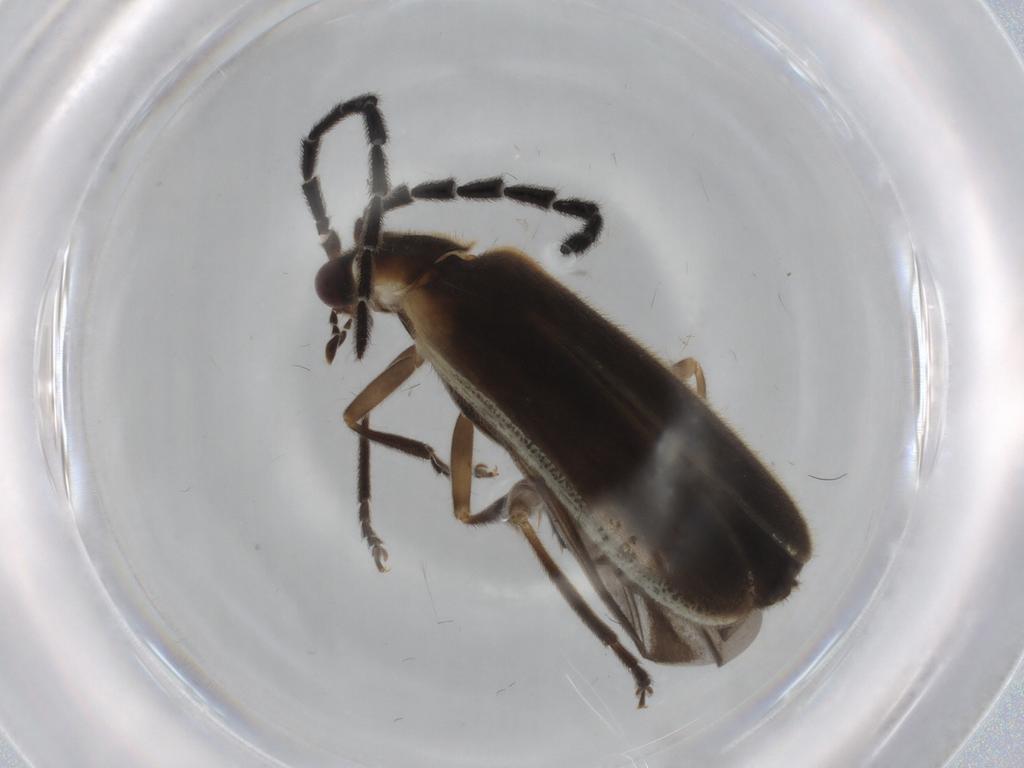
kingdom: Animalia
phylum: Arthropoda
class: Insecta
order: Coleoptera
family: Cantharidae
